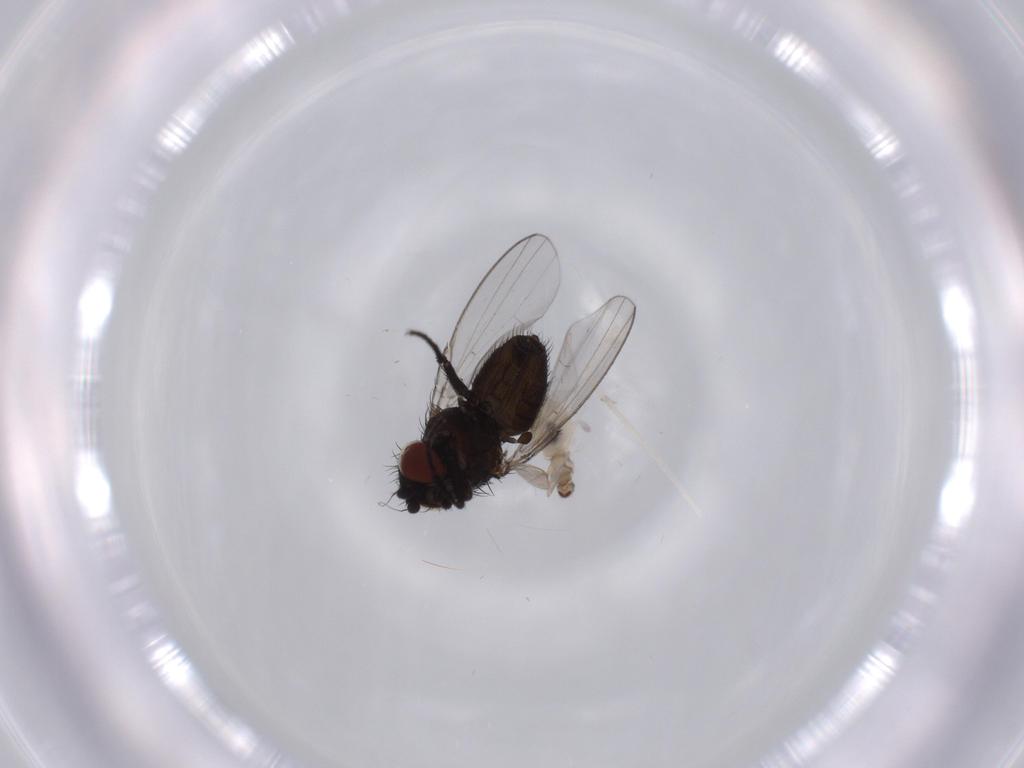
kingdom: Animalia
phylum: Arthropoda
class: Insecta
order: Diptera
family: Cecidomyiidae
